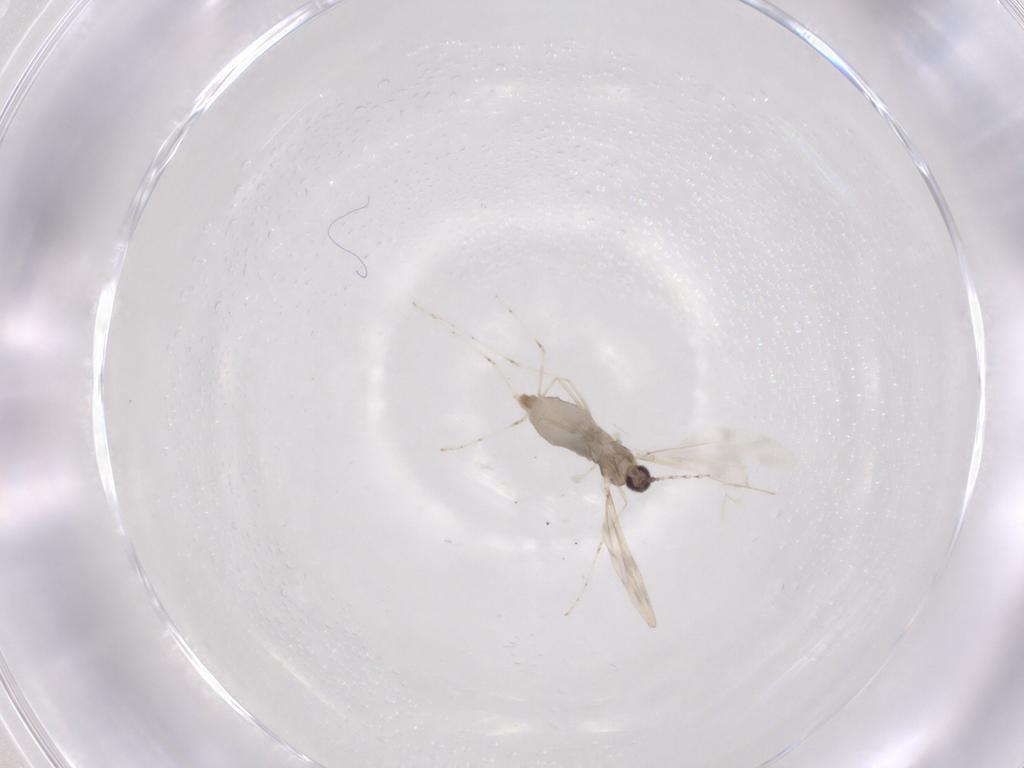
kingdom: Animalia
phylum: Arthropoda
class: Insecta
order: Diptera
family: Cecidomyiidae
